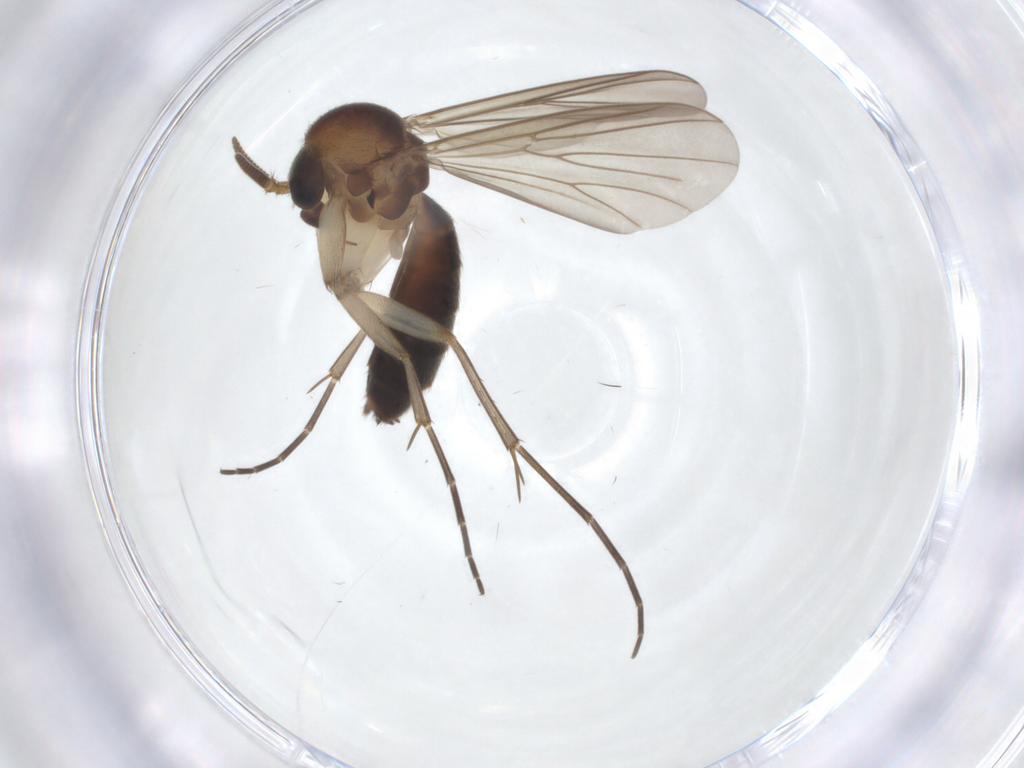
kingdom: Animalia
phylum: Arthropoda
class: Insecta
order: Diptera
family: Mycetophilidae
